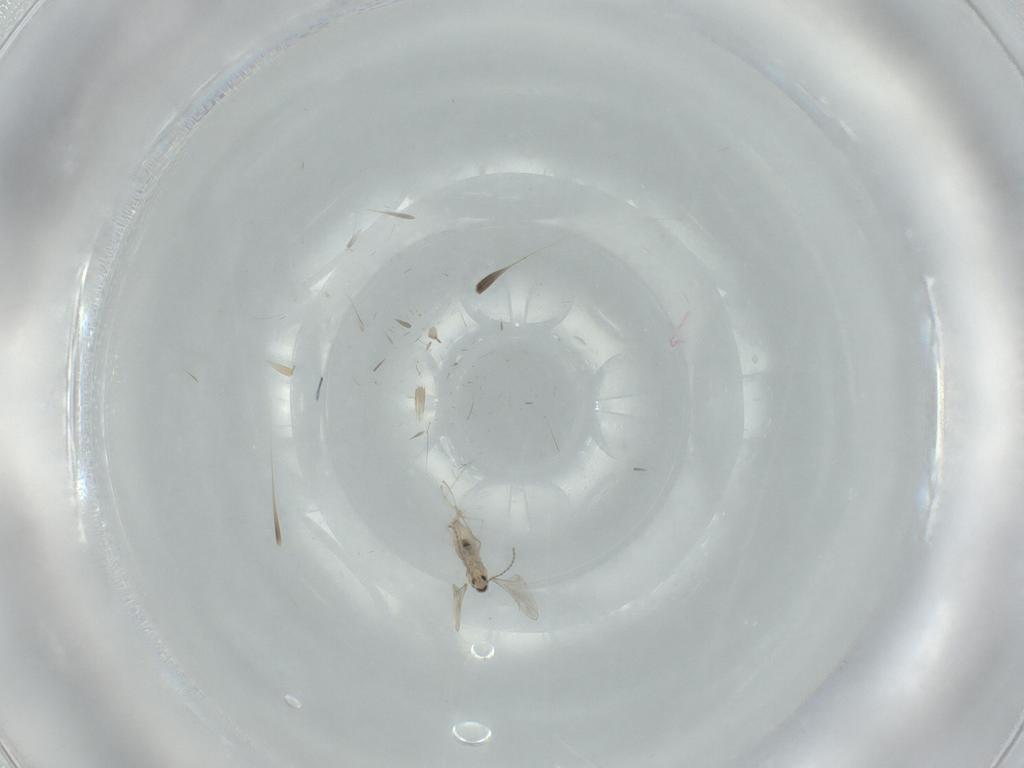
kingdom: Animalia
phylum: Arthropoda
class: Insecta
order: Diptera
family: Cecidomyiidae
